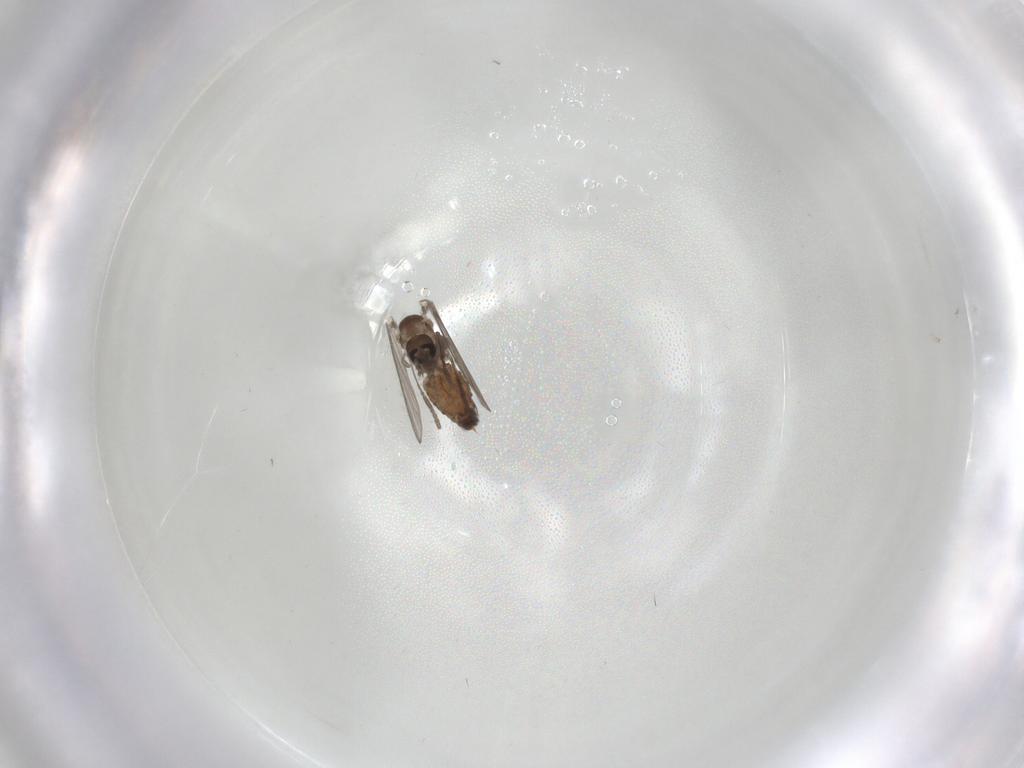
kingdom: Animalia
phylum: Arthropoda
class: Insecta
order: Diptera
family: Psychodidae
